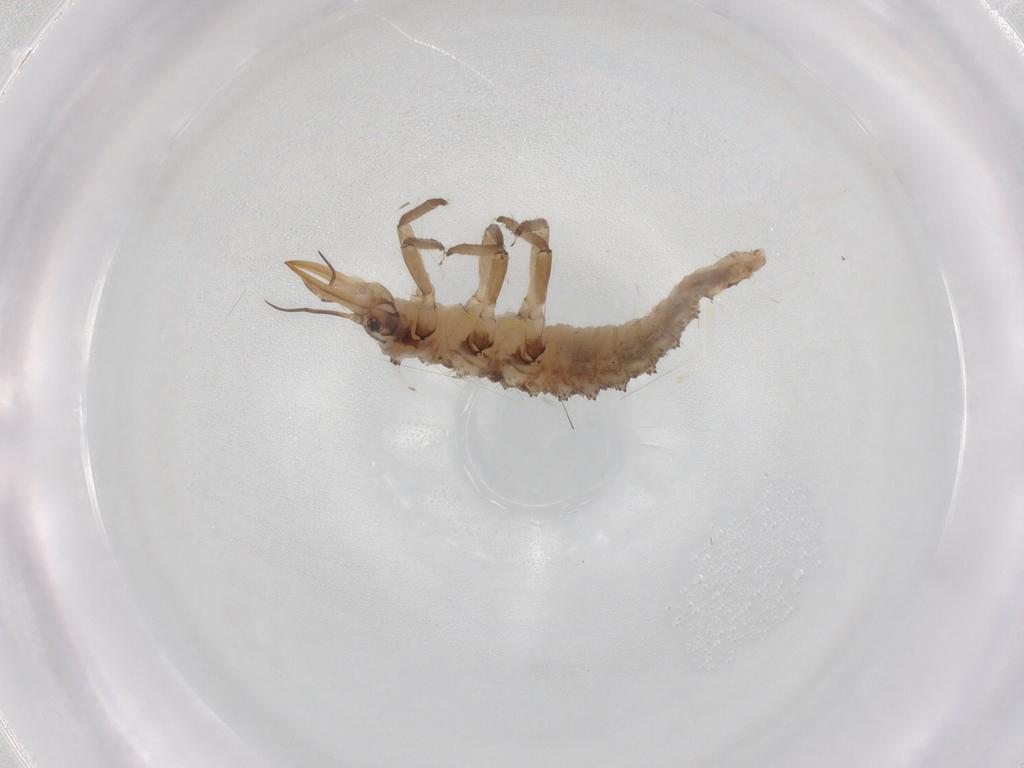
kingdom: Animalia
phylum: Arthropoda
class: Insecta
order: Neuroptera
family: Chrysopidae
